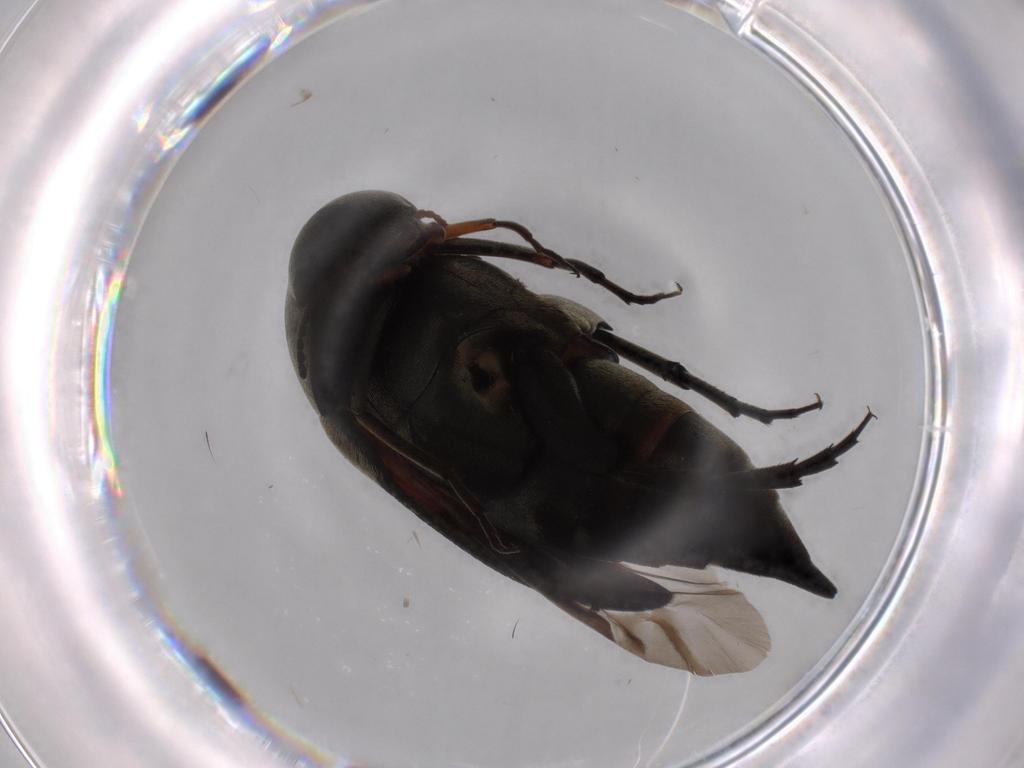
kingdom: Animalia
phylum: Arthropoda
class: Insecta
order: Coleoptera
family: Mordellidae
